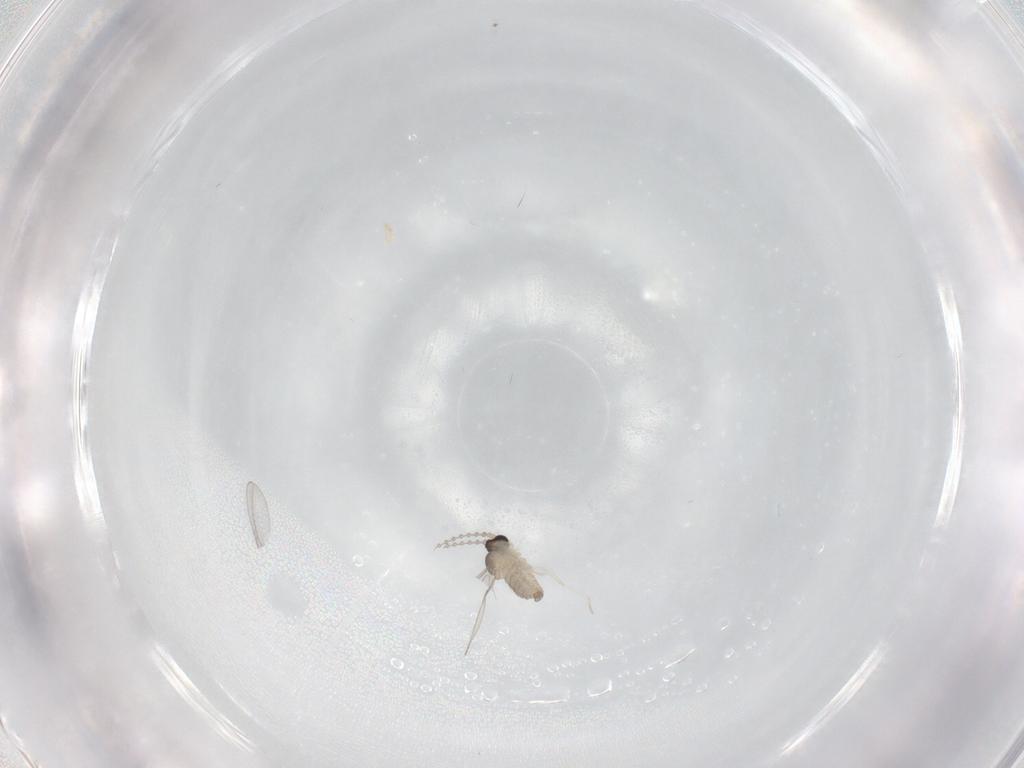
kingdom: Animalia
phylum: Arthropoda
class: Insecta
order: Diptera
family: Cecidomyiidae
